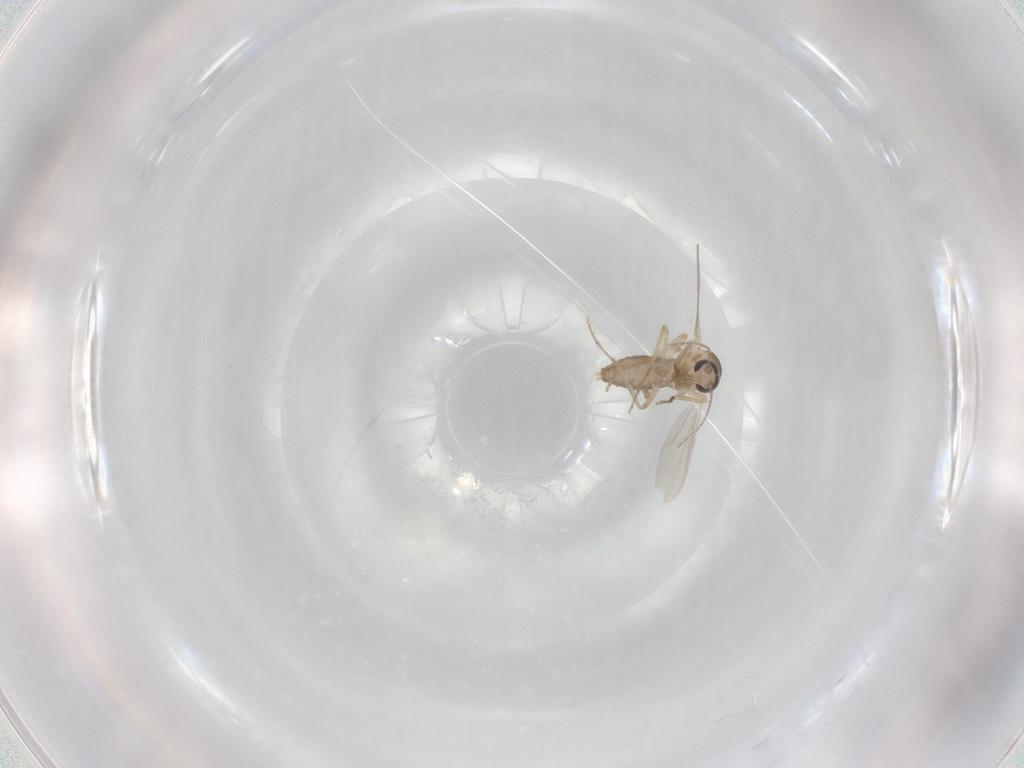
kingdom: Animalia
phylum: Arthropoda
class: Insecta
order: Diptera
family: Ceratopogonidae
